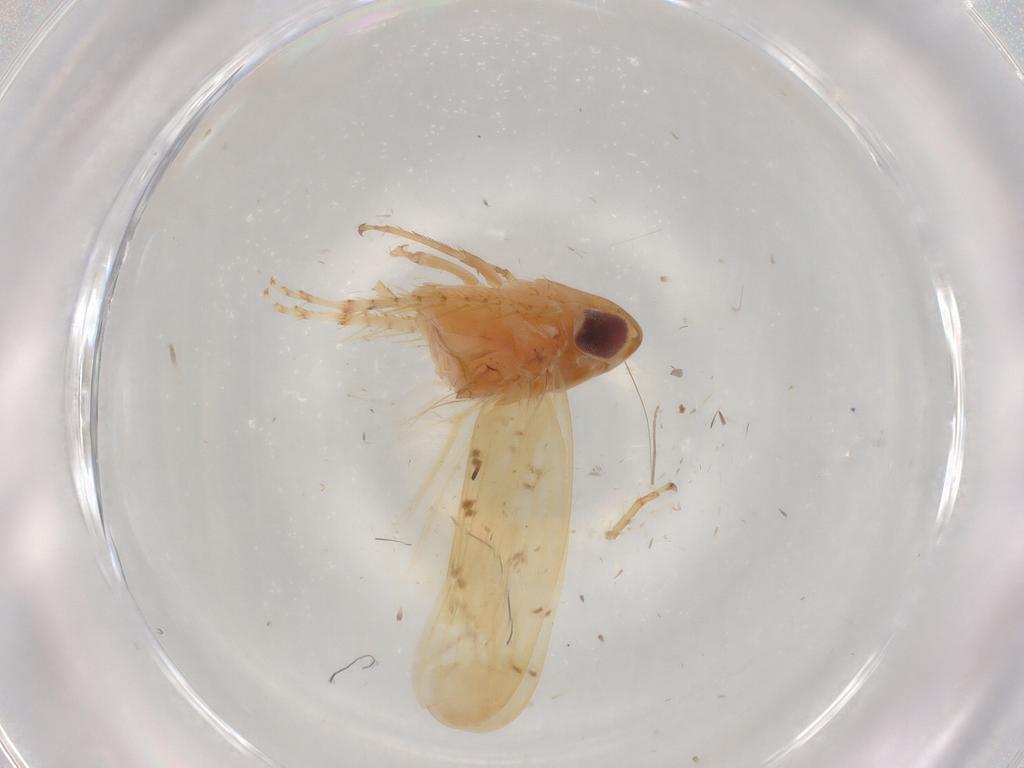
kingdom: Animalia
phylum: Arthropoda
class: Insecta
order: Hemiptera
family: Cicadellidae
